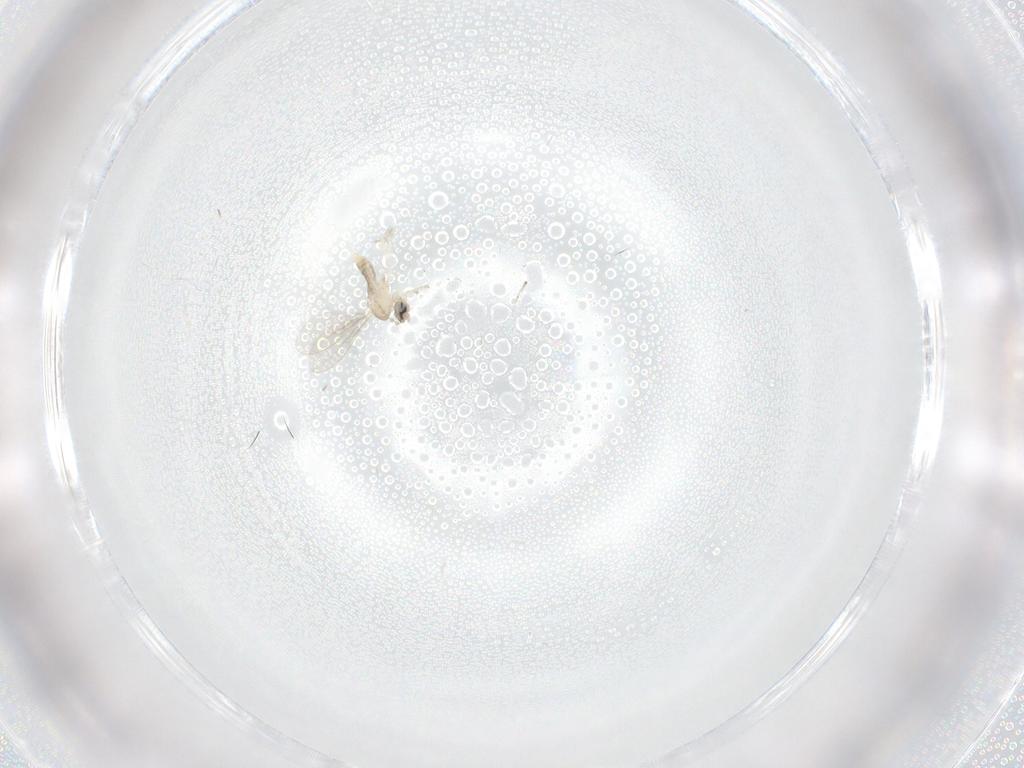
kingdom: Animalia
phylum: Arthropoda
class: Insecta
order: Diptera
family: Cecidomyiidae
